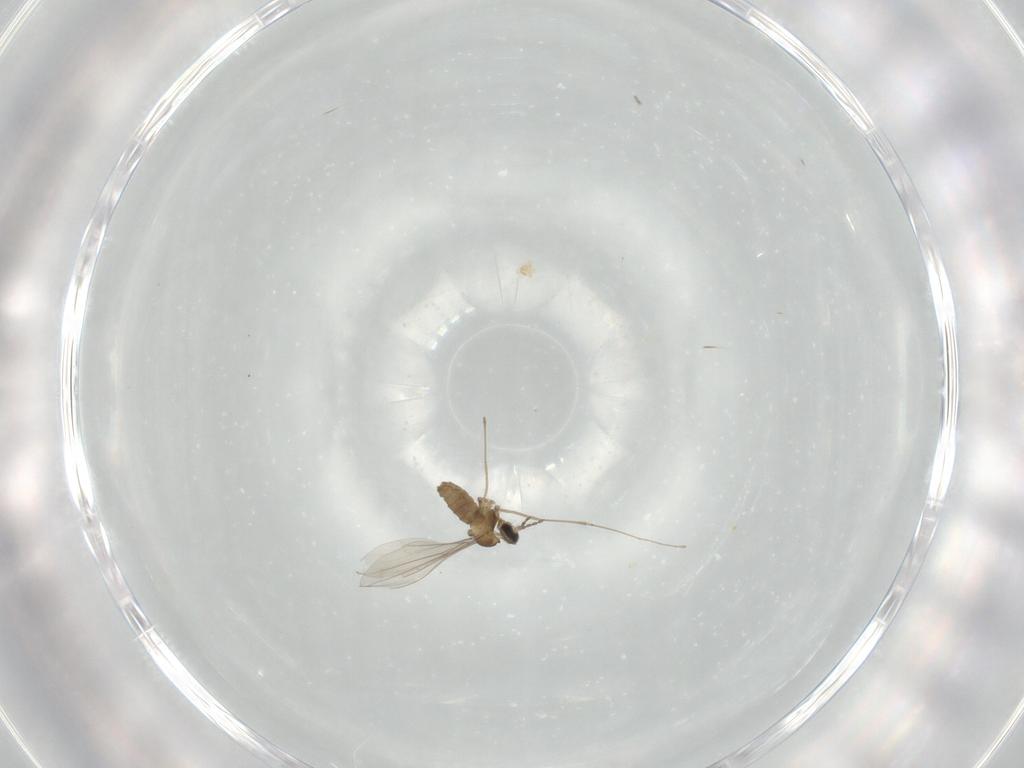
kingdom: Animalia
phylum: Arthropoda
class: Insecta
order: Diptera
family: Cecidomyiidae
